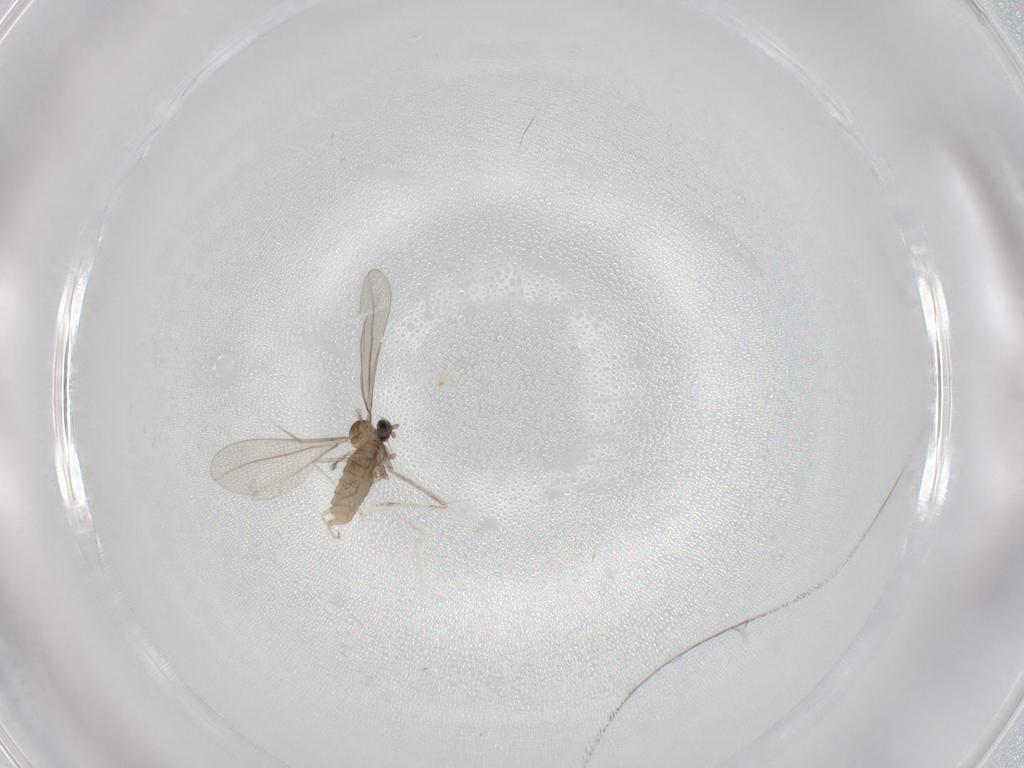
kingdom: Animalia
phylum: Arthropoda
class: Insecta
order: Diptera
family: Cecidomyiidae
